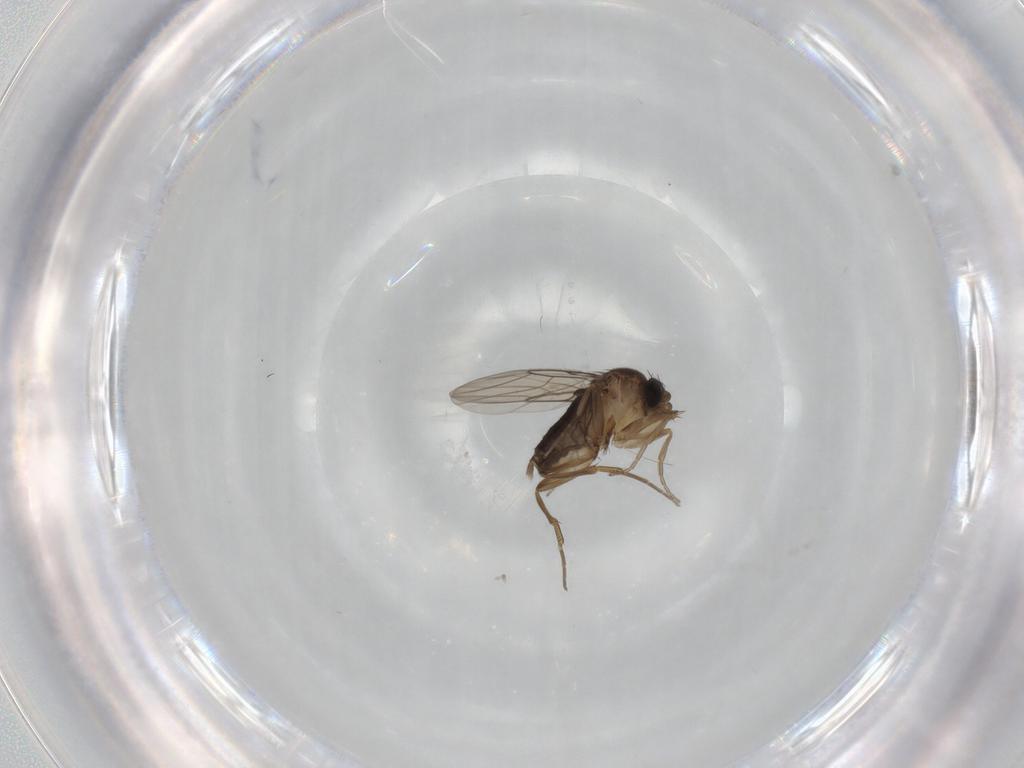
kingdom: Animalia
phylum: Arthropoda
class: Insecta
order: Diptera
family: Phoridae
